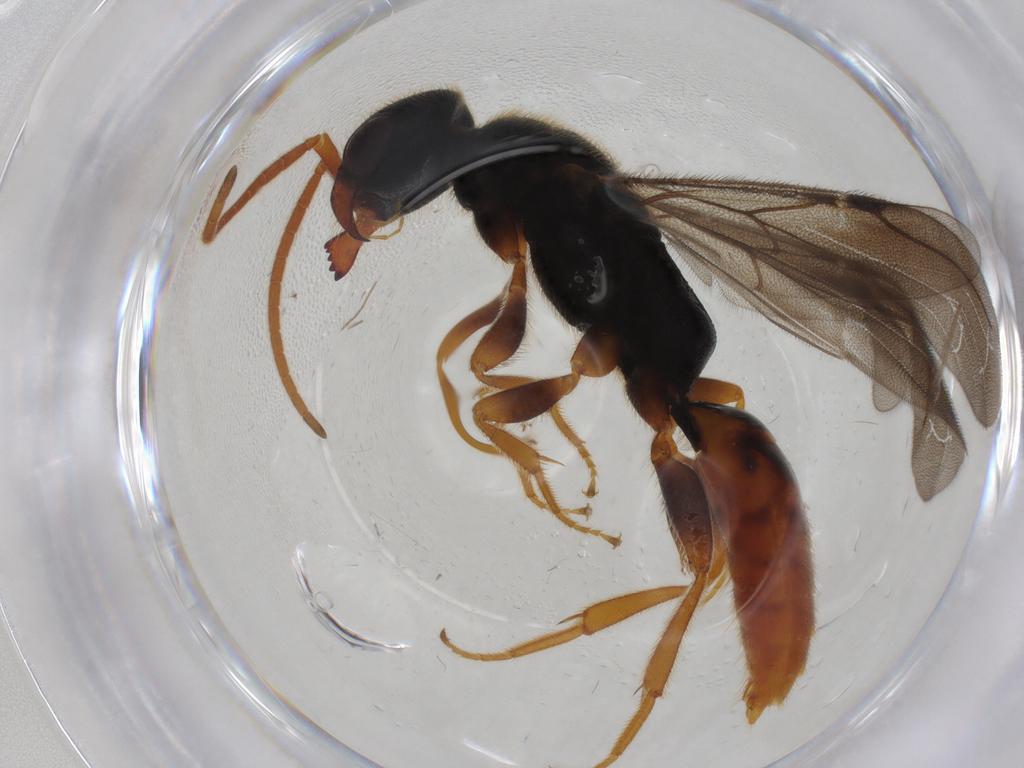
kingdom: Animalia
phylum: Arthropoda
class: Insecta
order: Hymenoptera
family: Bethylidae
